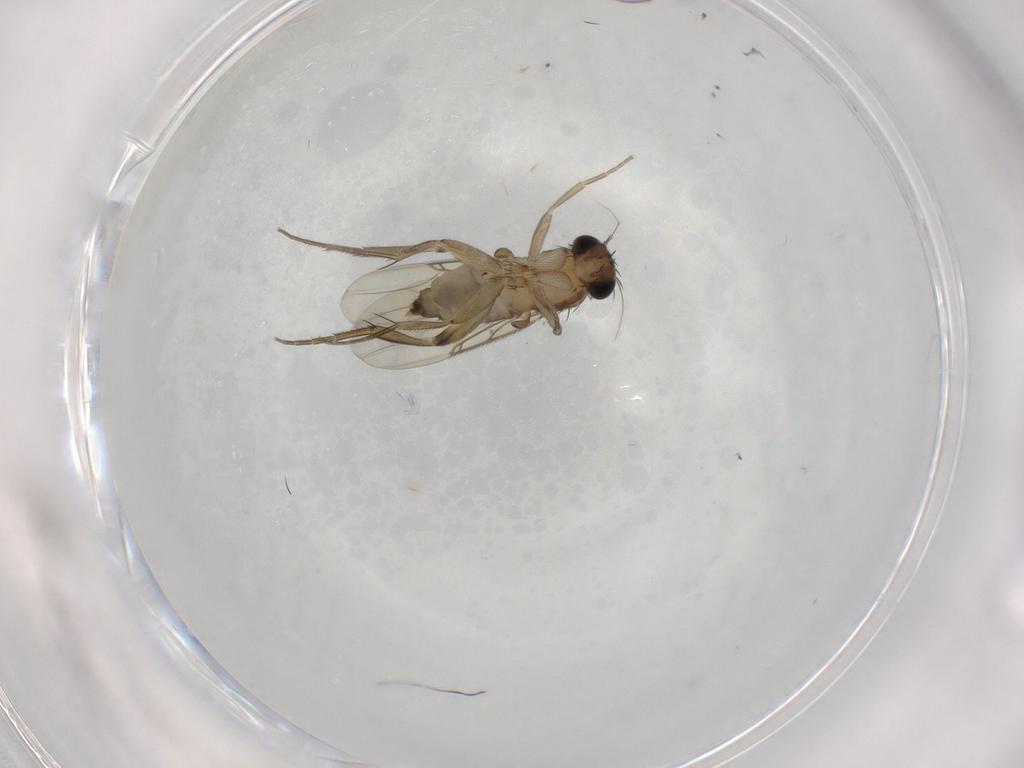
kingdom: Animalia
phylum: Arthropoda
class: Insecta
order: Diptera
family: Phoridae
